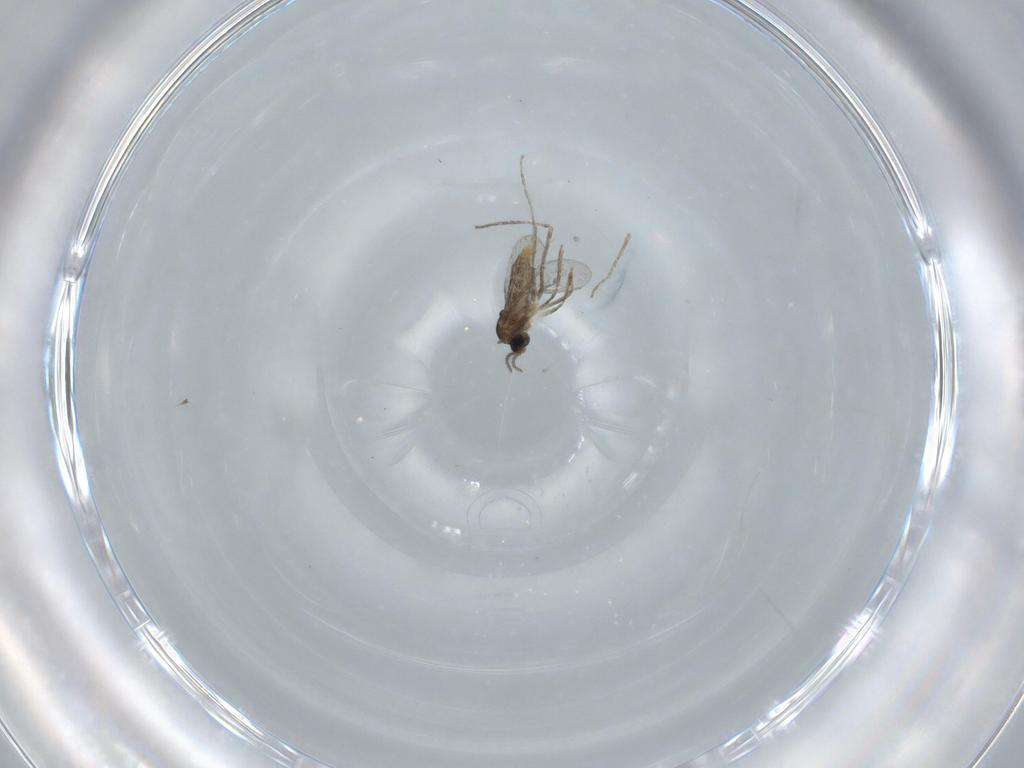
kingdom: Animalia
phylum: Arthropoda
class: Insecta
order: Diptera
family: Cecidomyiidae
